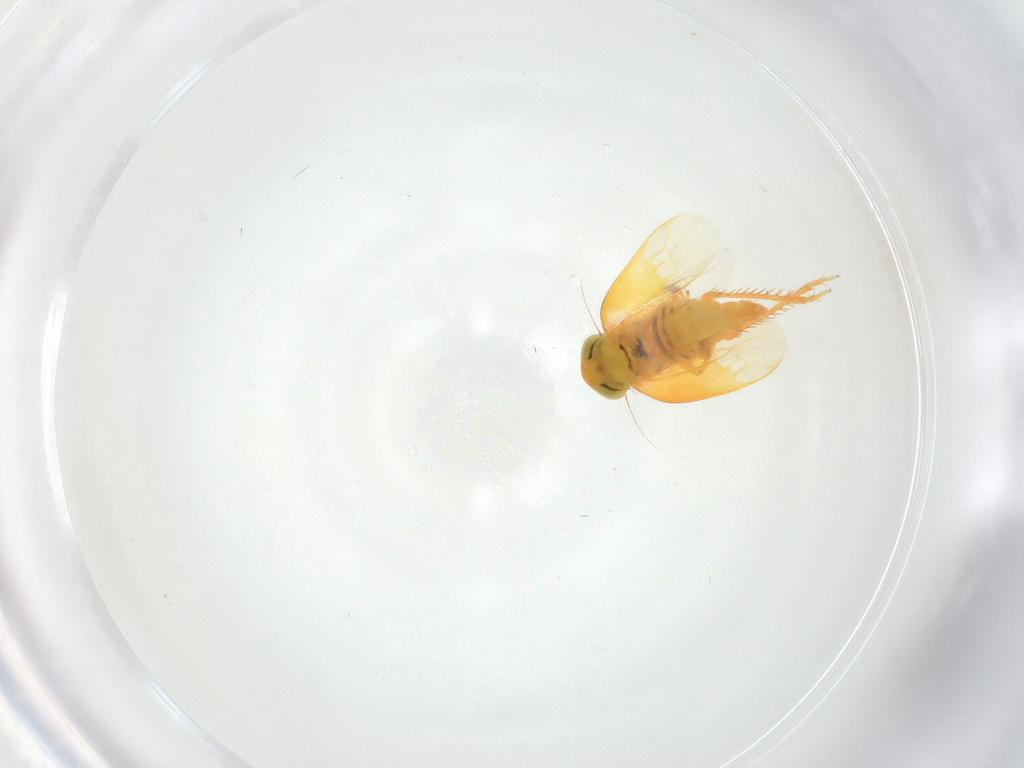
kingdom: Animalia
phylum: Arthropoda
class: Insecta
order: Hemiptera
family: Cicadellidae
